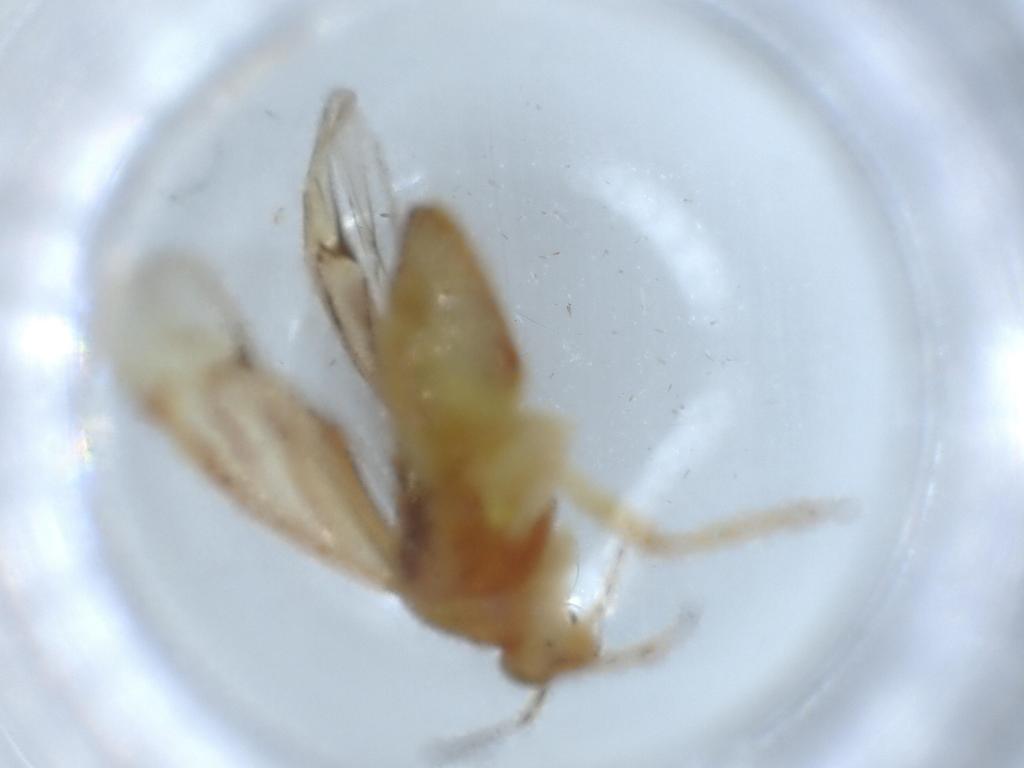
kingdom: Animalia
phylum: Arthropoda
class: Insecta
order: Hemiptera
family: Miridae
